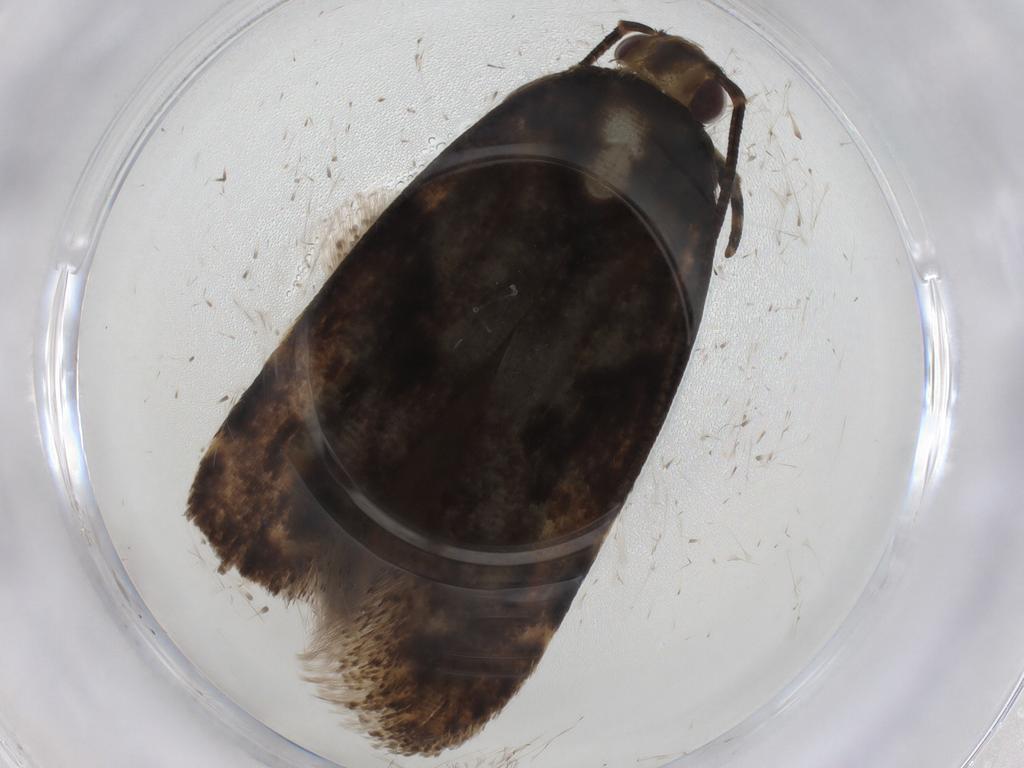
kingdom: Animalia
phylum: Arthropoda
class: Insecta
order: Lepidoptera
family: Gelechiidae
